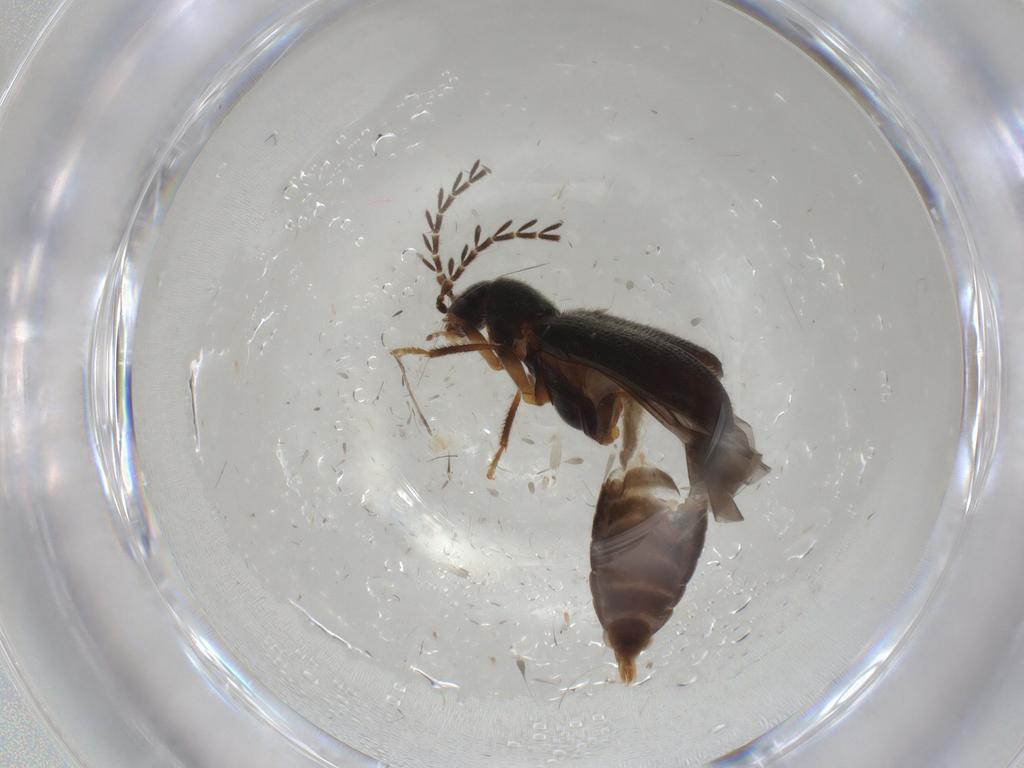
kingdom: Animalia
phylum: Arthropoda
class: Insecta
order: Coleoptera
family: Ptilodactylidae
